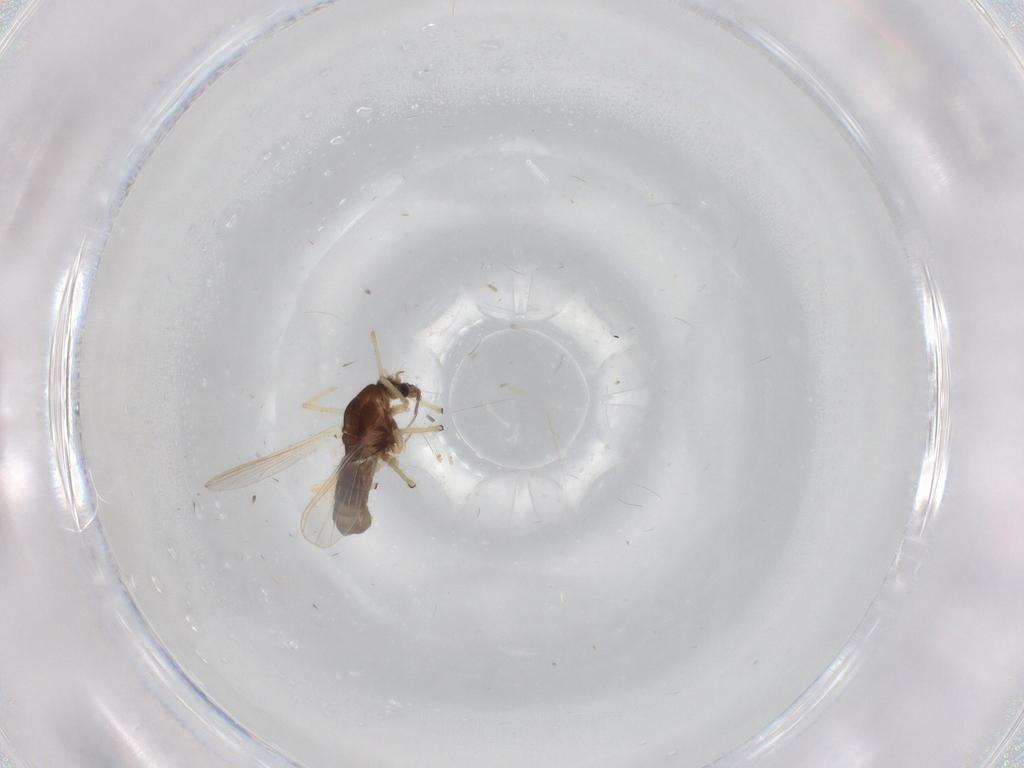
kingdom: Animalia
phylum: Arthropoda
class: Insecta
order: Diptera
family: Chironomidae
